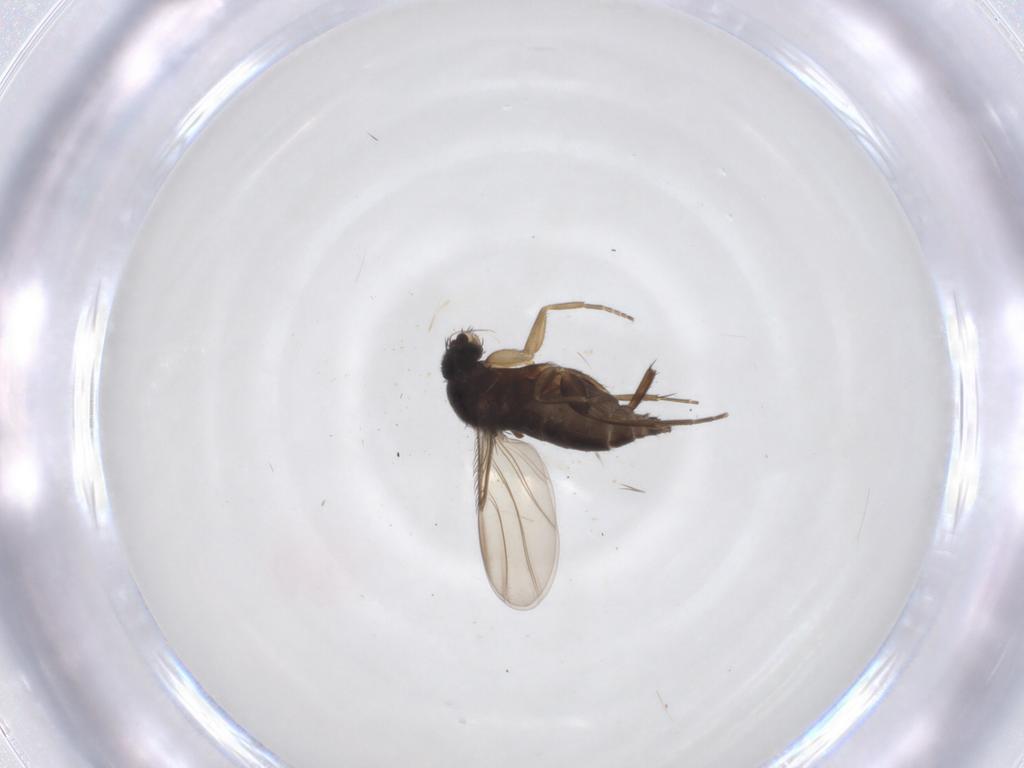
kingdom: Animalia
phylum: Arthropoda
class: Insecta
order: Diptera
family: Phoridae
